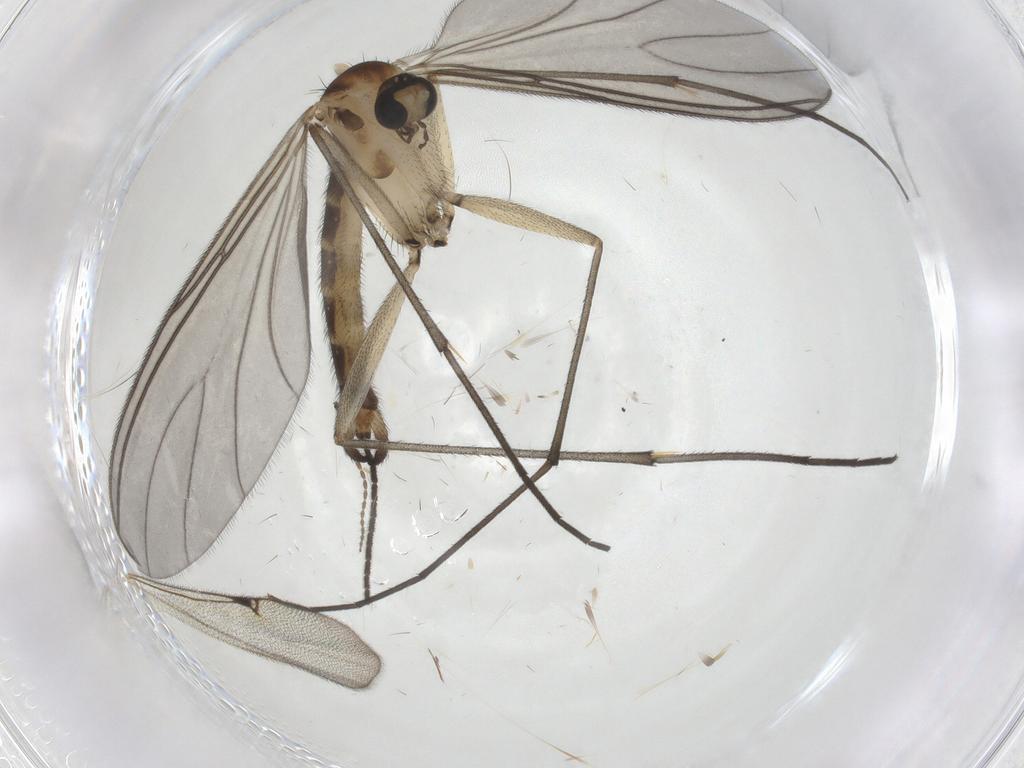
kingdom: Animalia
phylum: Arthropoda
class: Insecta
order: Diptera
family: Sciaridae
